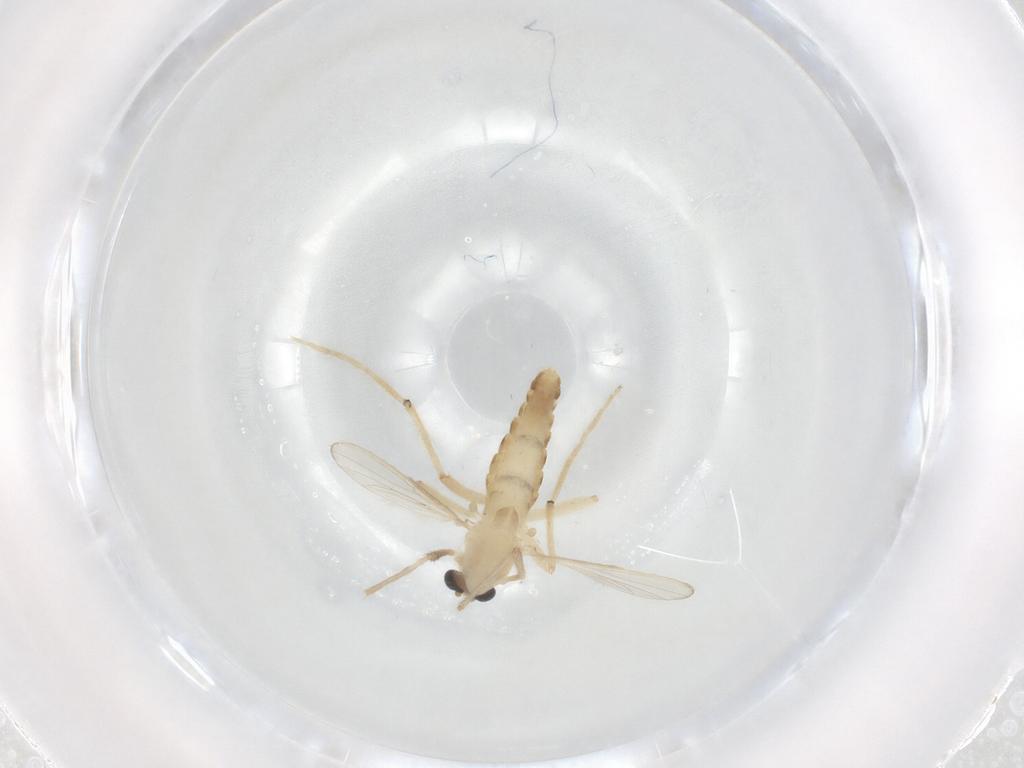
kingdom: Animalia
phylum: Arthropoda
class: Insecta
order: Diptera
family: Chironomidae
